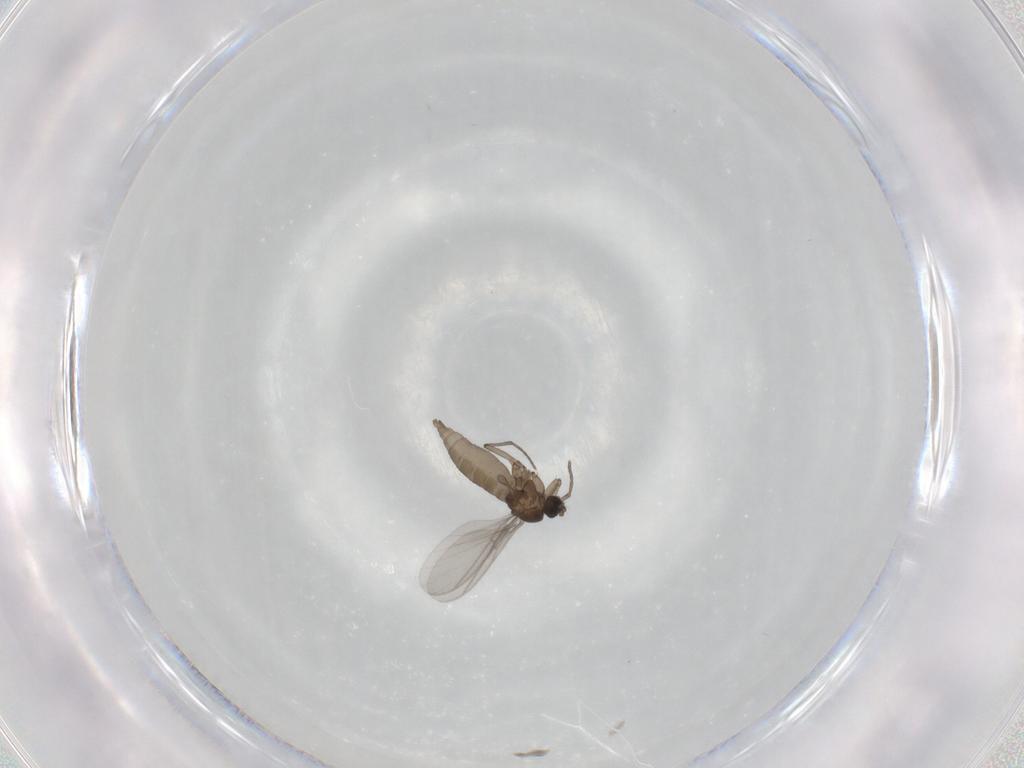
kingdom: Animalia
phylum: Arthropoda
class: Insecta
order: Diptera
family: Sciaridae
